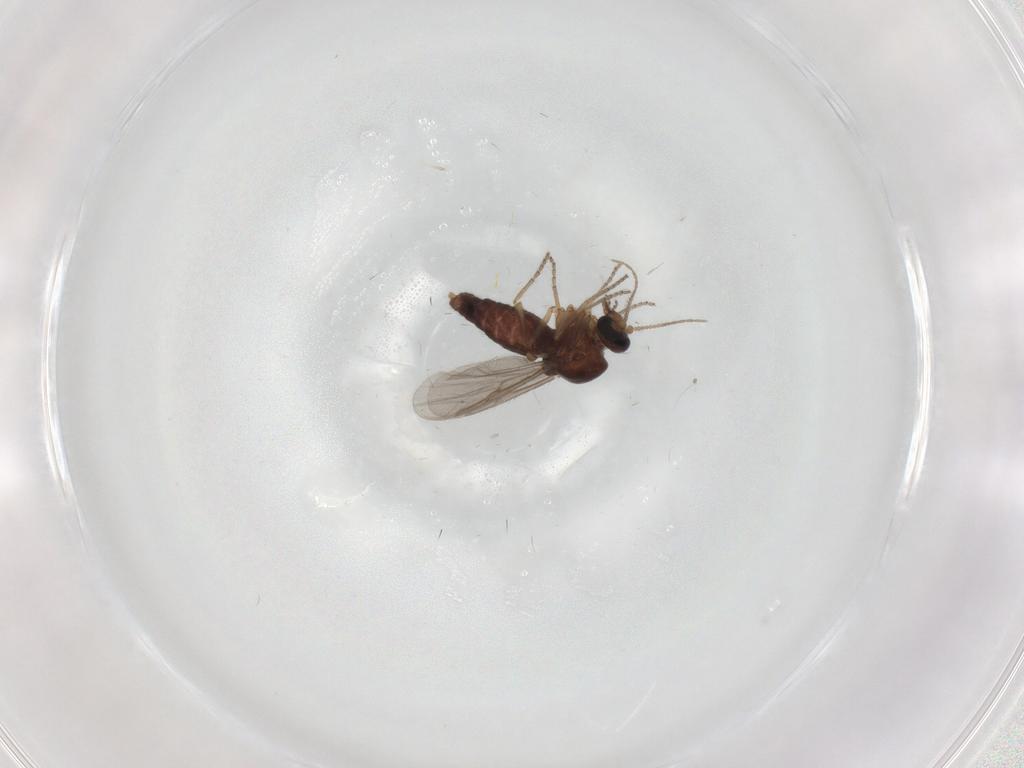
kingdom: Animalia
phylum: Arthropoda
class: Insecta
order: Diptera
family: Ceratopogonidae
